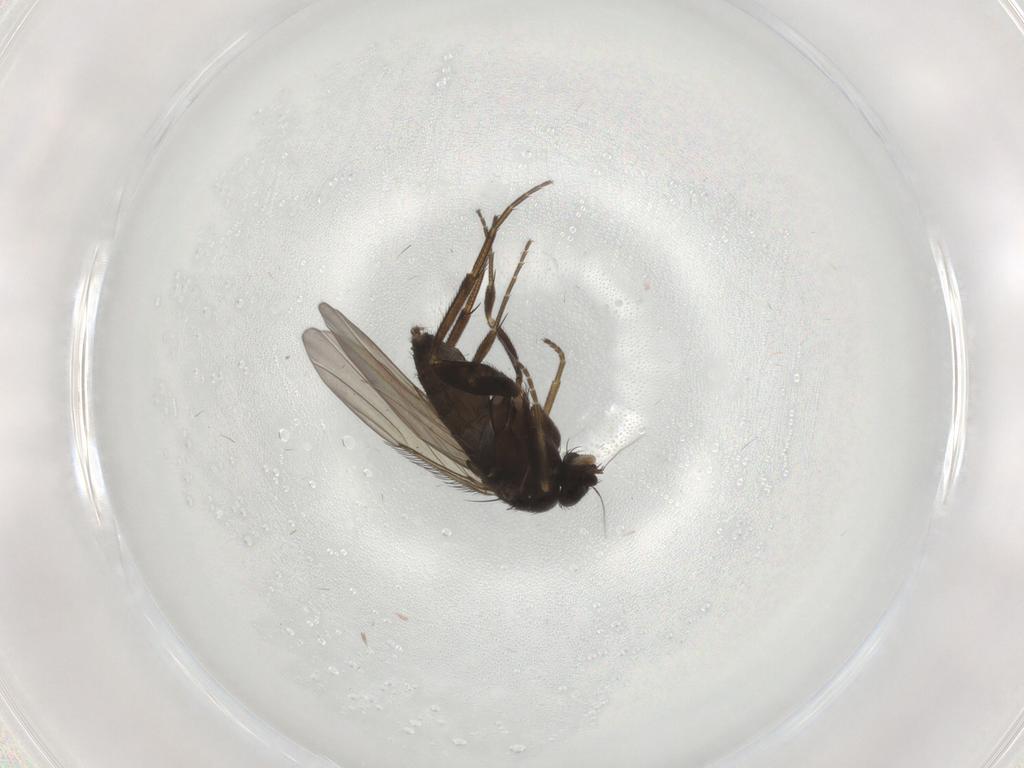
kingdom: Animalia
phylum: Arthropoda
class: Insecta
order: Diptera
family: Phoridae
